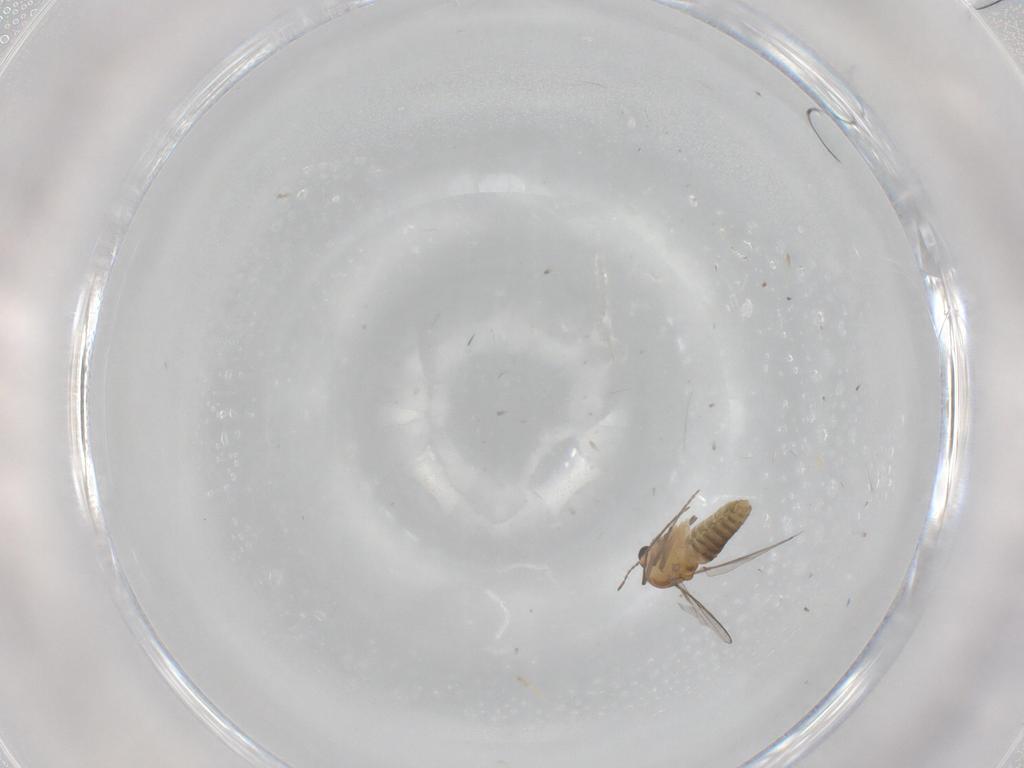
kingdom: Animalia
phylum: Arthropoda
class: Insecta
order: Diptera
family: Chironomidae
